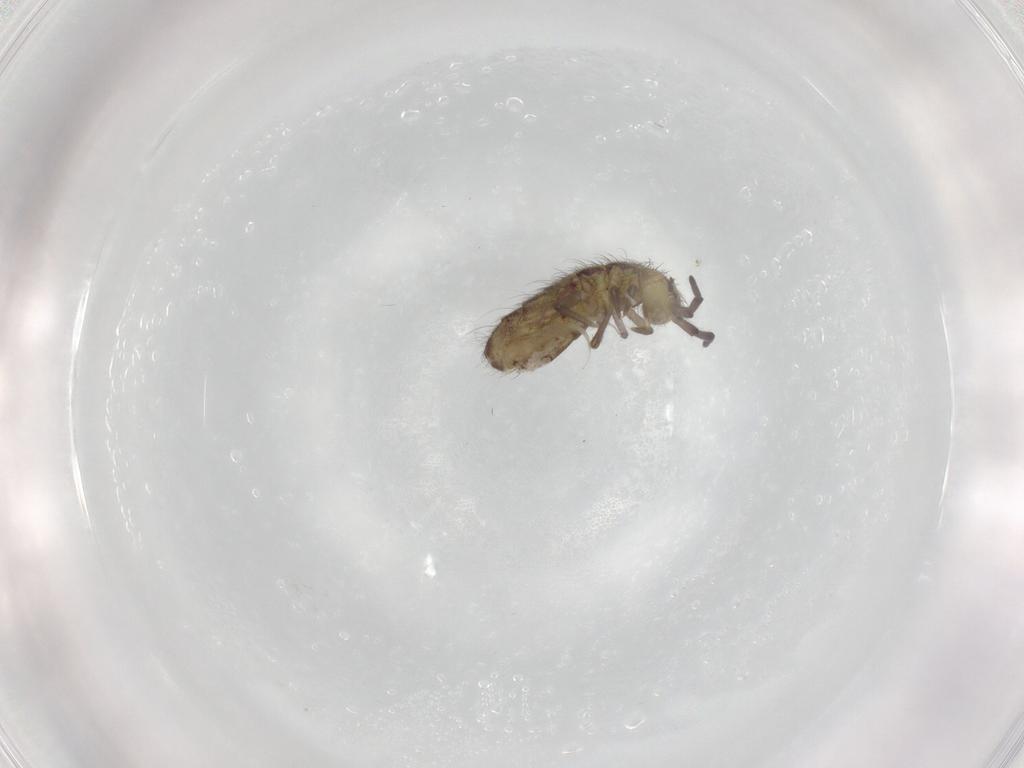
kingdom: Animalia
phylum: Arthropoda
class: Collembola
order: Entomobryomorpha
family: Isotomidae
